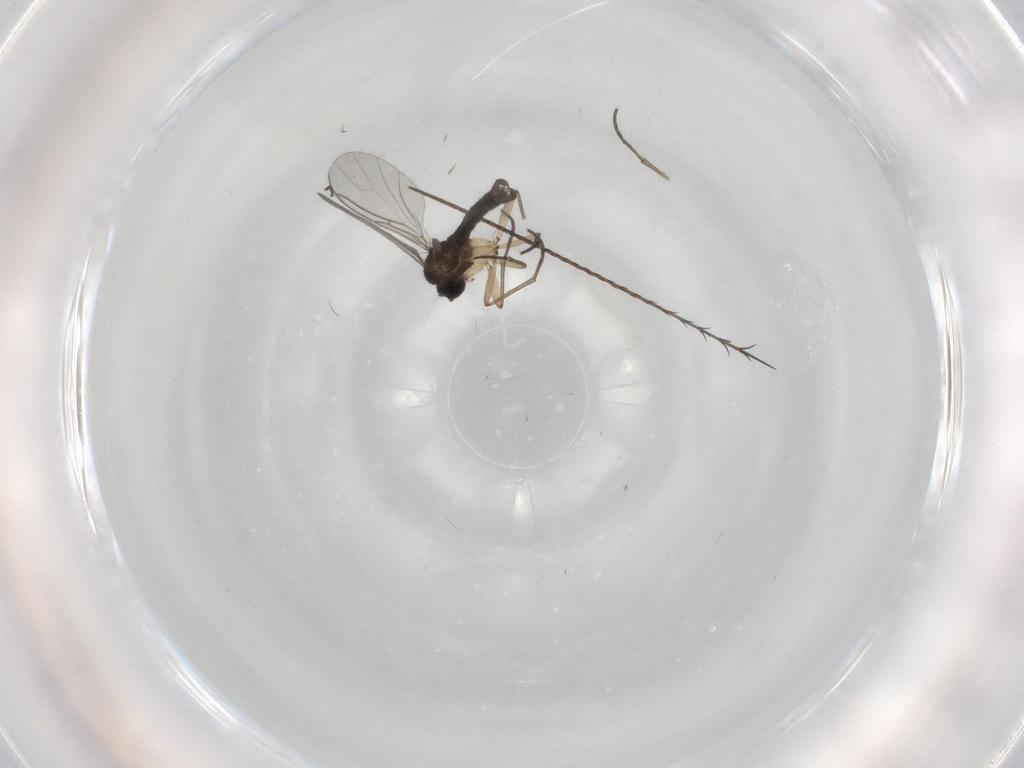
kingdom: Animalia
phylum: Arthropoda
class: Insecta
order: Diptera
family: Sciaridae
